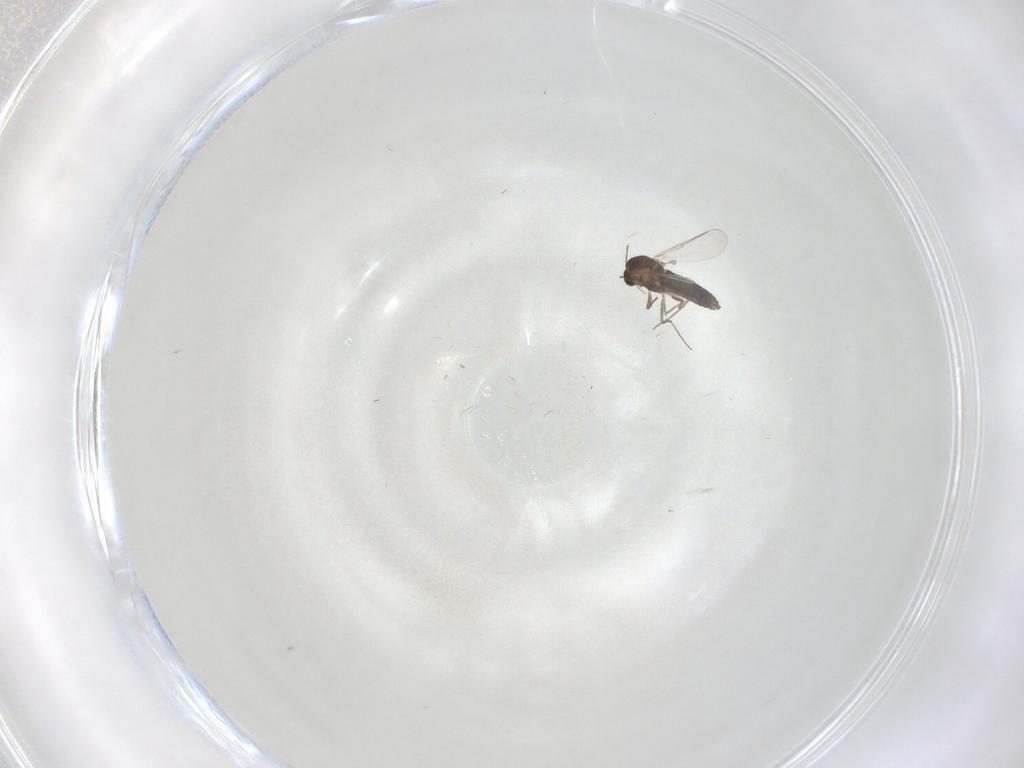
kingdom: Animalia
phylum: Arthropoda
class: Insecta
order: Diptera
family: Chironomidae
